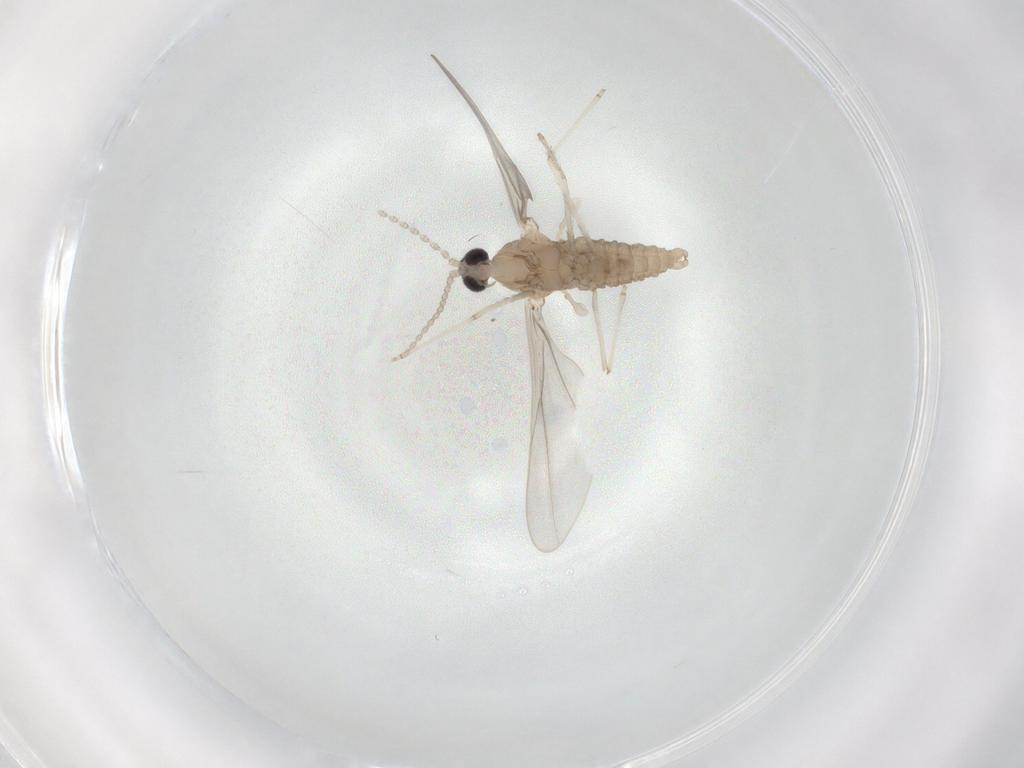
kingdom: Animalia
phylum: Arthropoda
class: Insecta
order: Diptera
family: Cecidomyiidae
